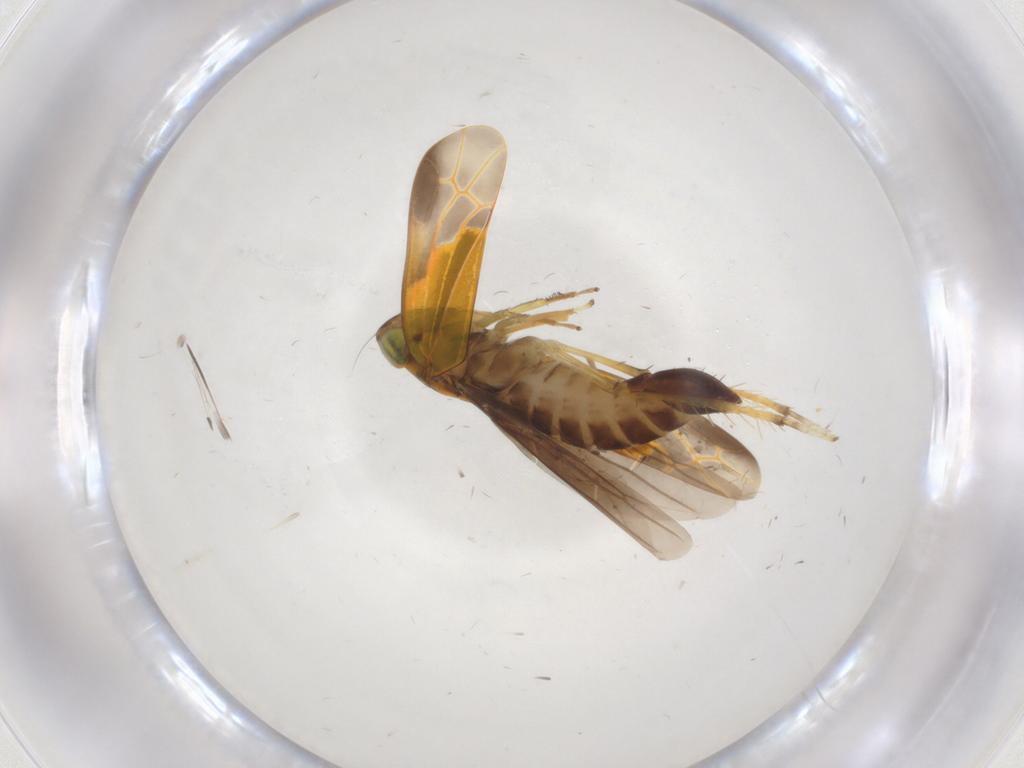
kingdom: Animalia
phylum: Arthropoda
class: Insecta
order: Hemiptera
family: Cicadellidae
